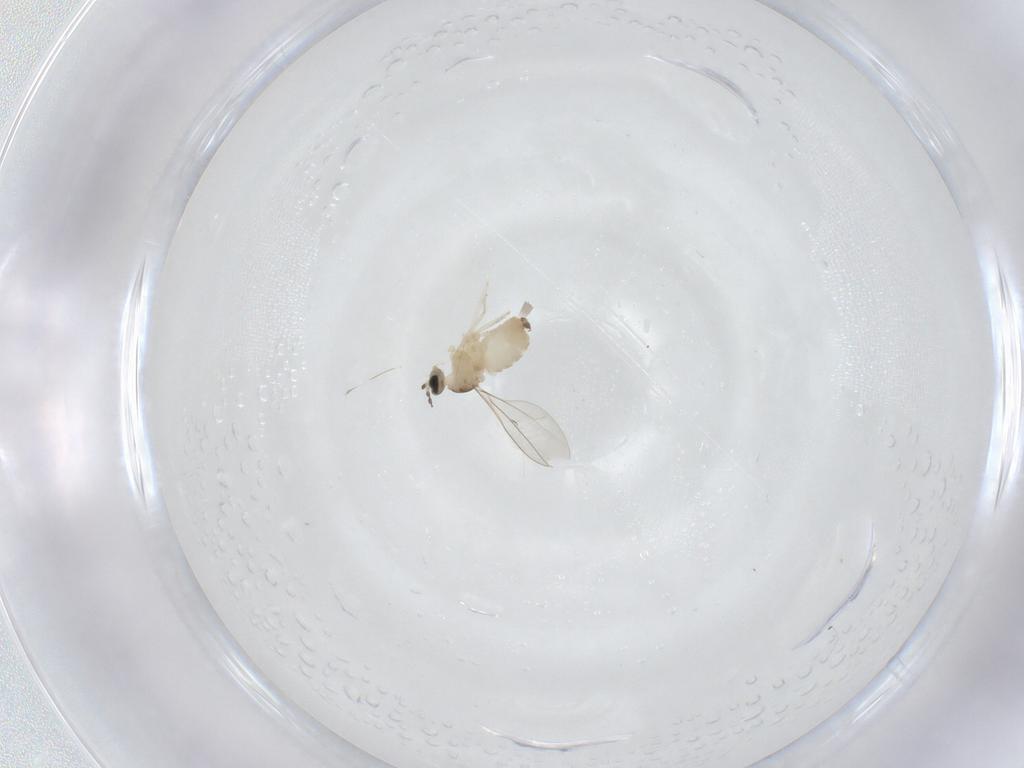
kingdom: Animalia
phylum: Arthropoda
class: Insecta
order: Diptera
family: Cecidomyiidae
